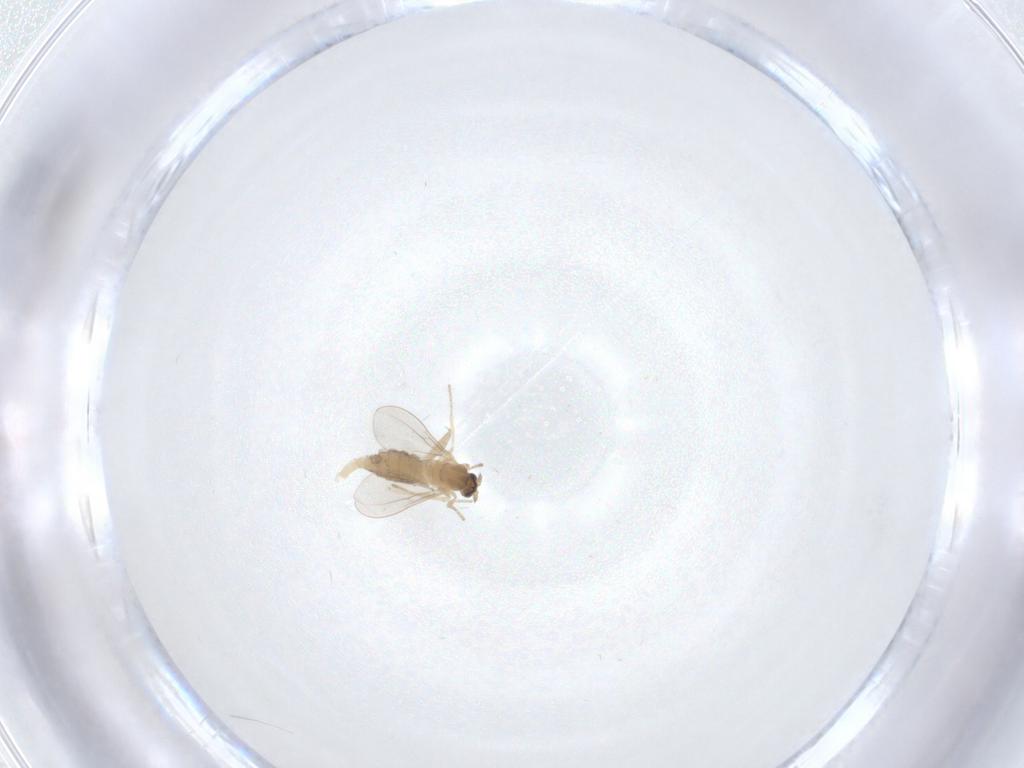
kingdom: Animalia
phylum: Arthropoda
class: Insecta
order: Diptera
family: Cecidomyiidae
